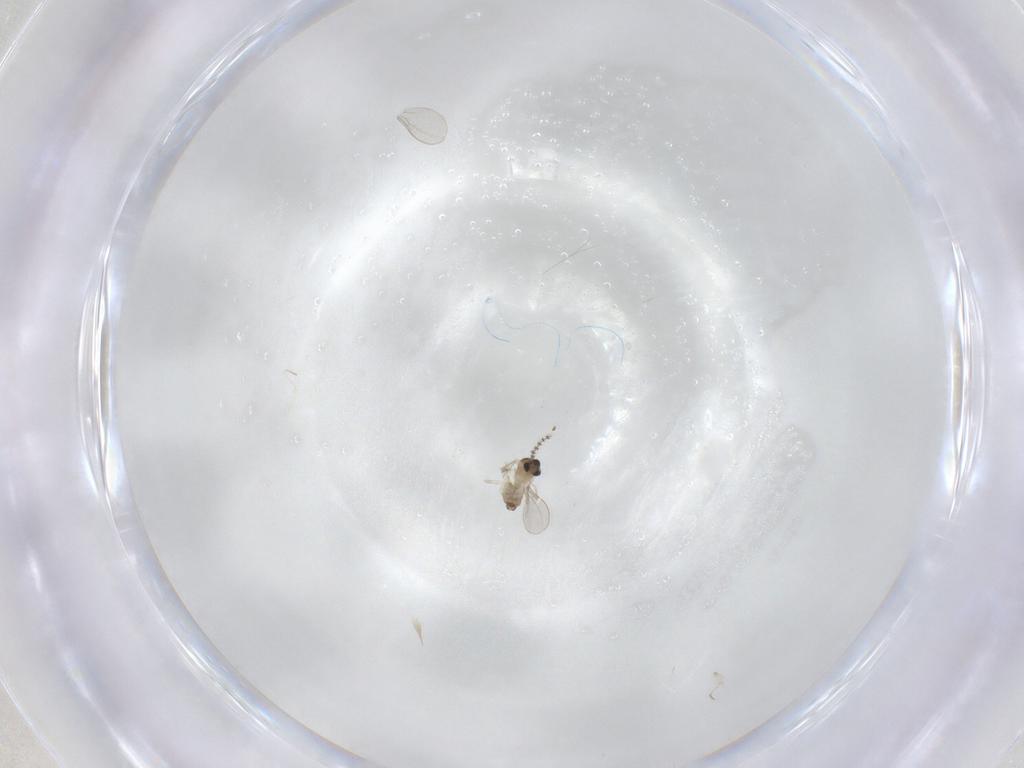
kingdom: Animalia
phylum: Arthropoda
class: Insecta
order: Diptera
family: Cecidomyiidae
